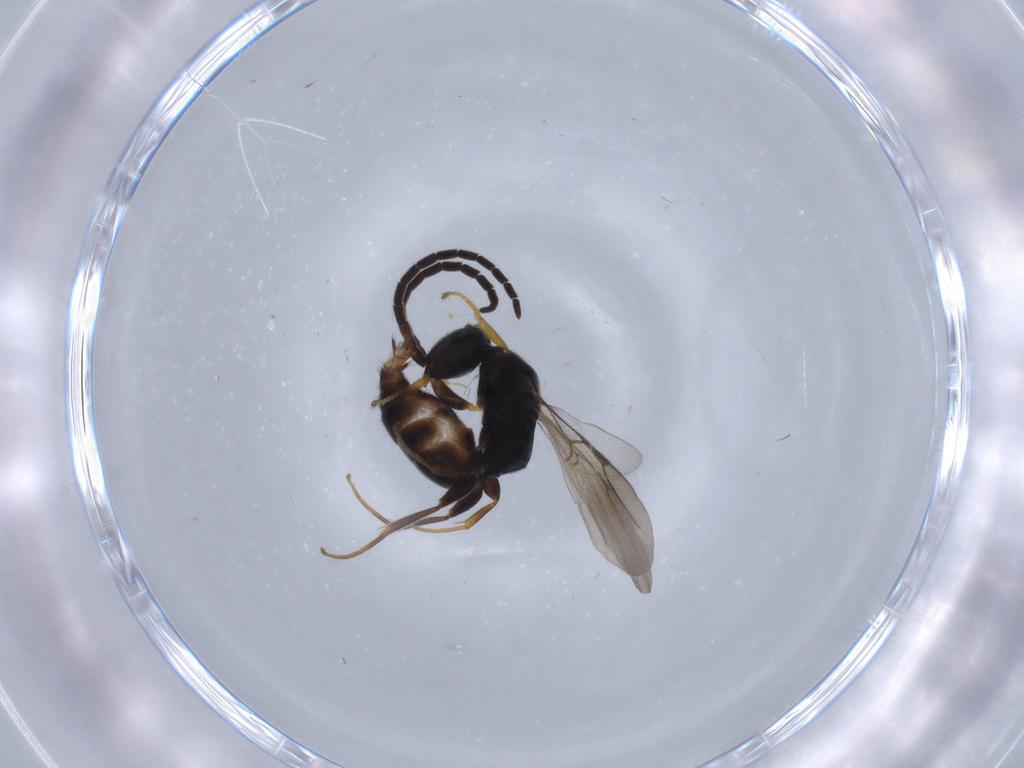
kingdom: Animalia
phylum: Arthropoda
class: Insecta
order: Hymenoptera
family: Bethylidae
